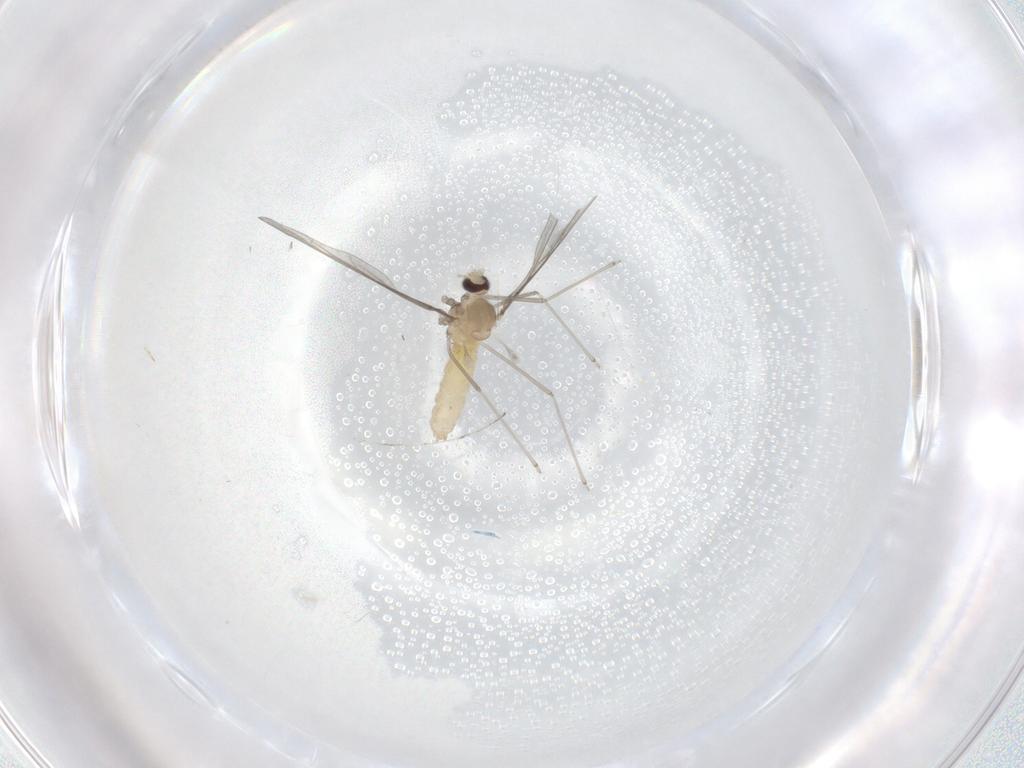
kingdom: Animalia
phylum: Arthropoda
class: Insecta
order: Diptera
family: Cecidomyiidae
